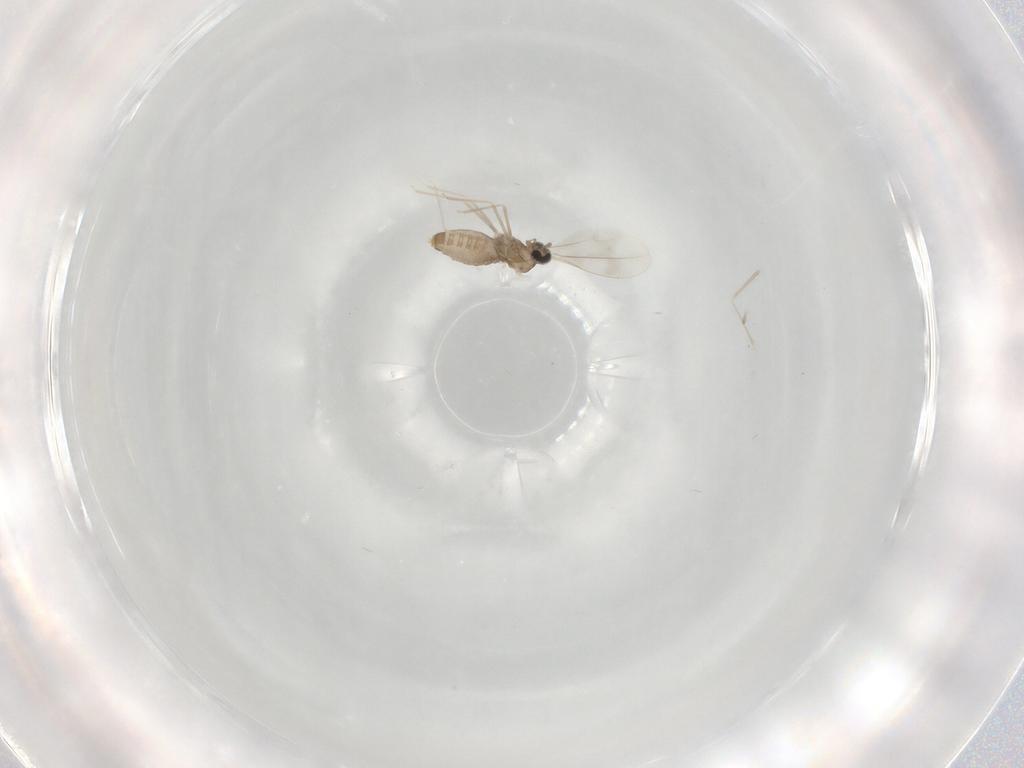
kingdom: Animalia
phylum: Arthropoda
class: Insecta
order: Diptera
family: Cecidomyiidae
